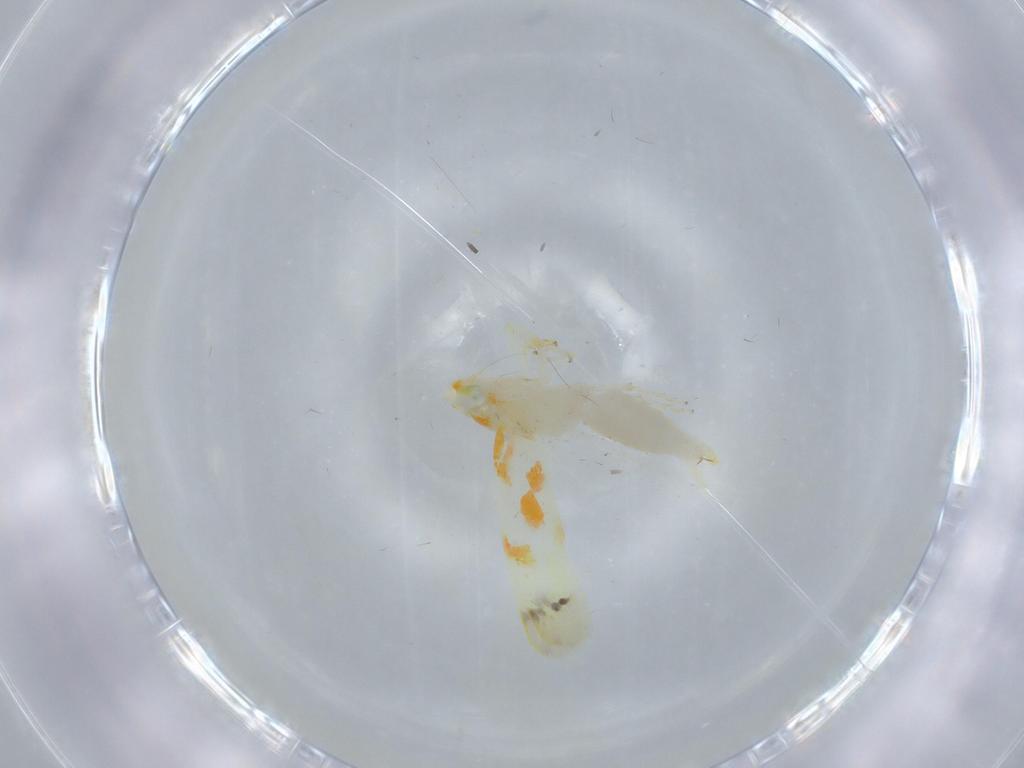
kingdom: Animalia
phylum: Arthropoda
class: Insecta
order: Hemiptera
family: Cicadellidae
